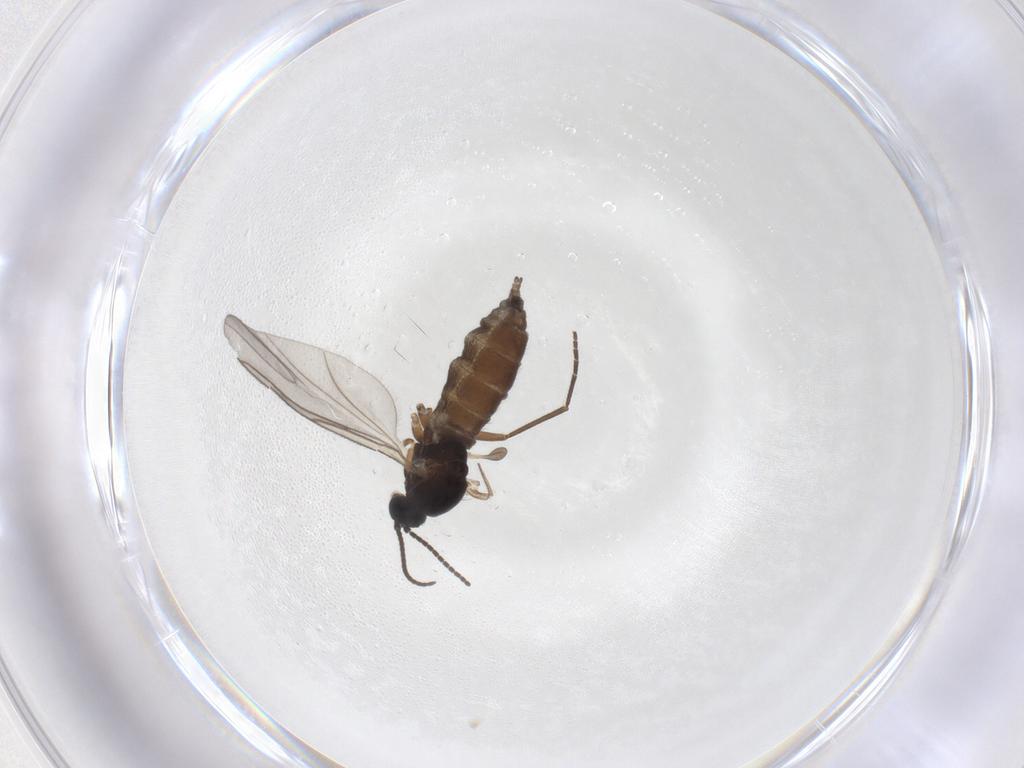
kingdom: Animalia
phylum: Arthropoda
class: Insecta
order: Diptera
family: Sciaridae
